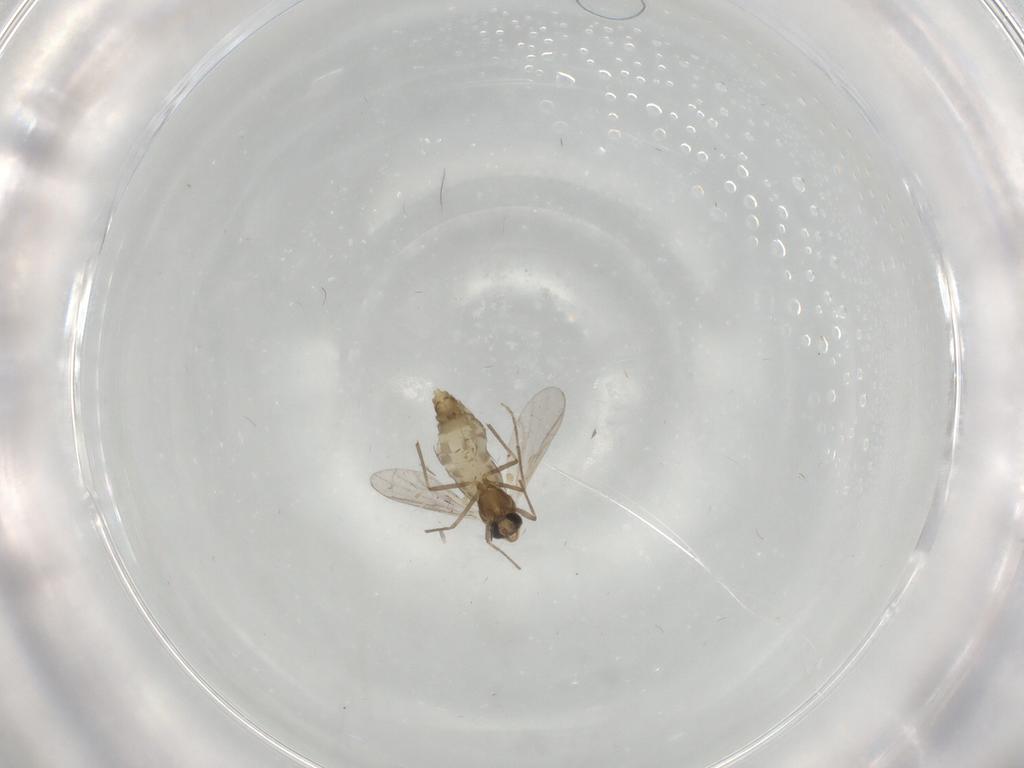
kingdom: Animalia
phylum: Arthropoda
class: Insecta
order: Diptera
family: Chironomidae
